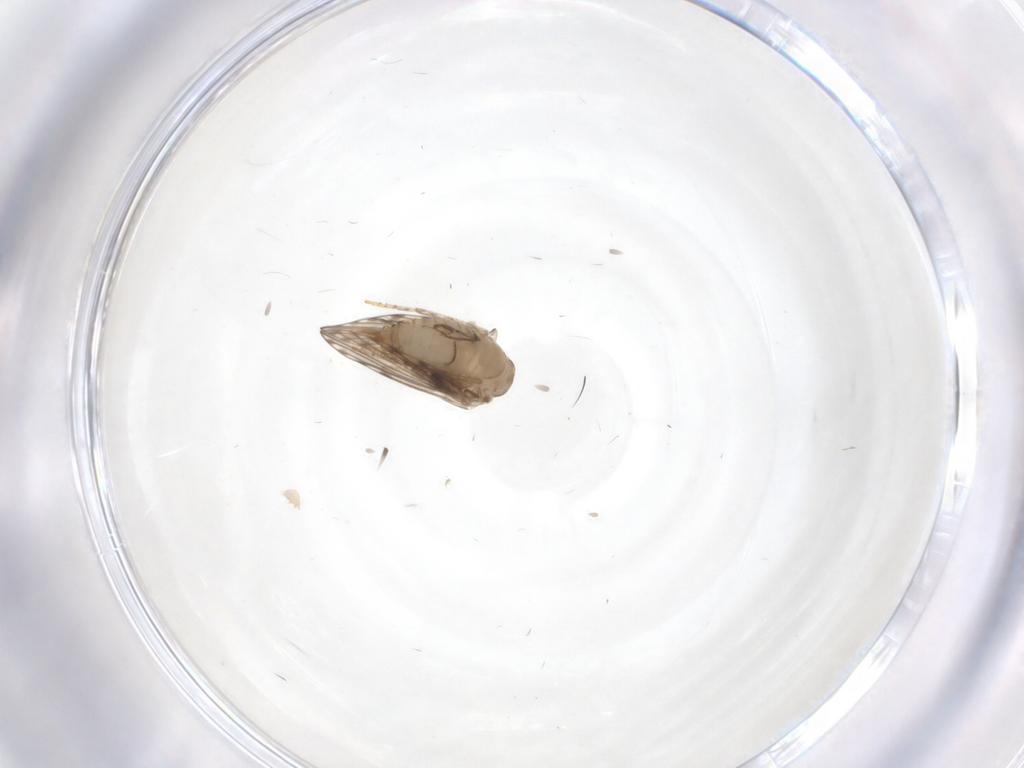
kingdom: Animalia
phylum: Arthropoda
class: Insecta
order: Diptera
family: Psychodidae
